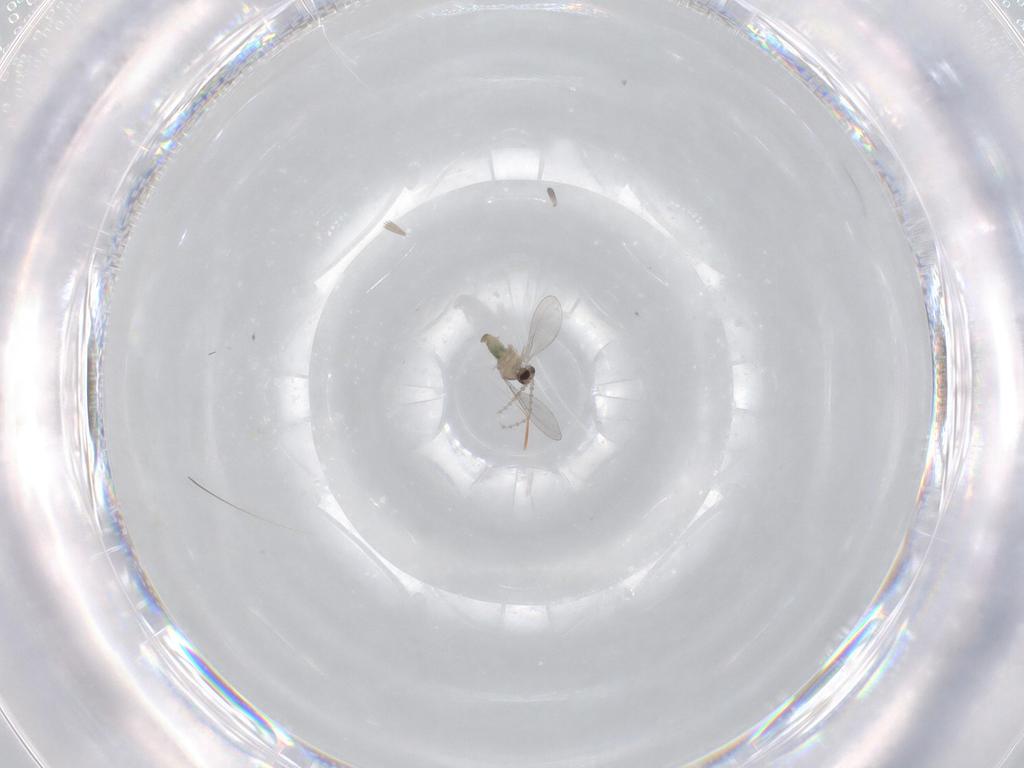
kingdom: Animalia
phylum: Arthropoda
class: Insecta
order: Diptera
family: Cecidomyiidae
